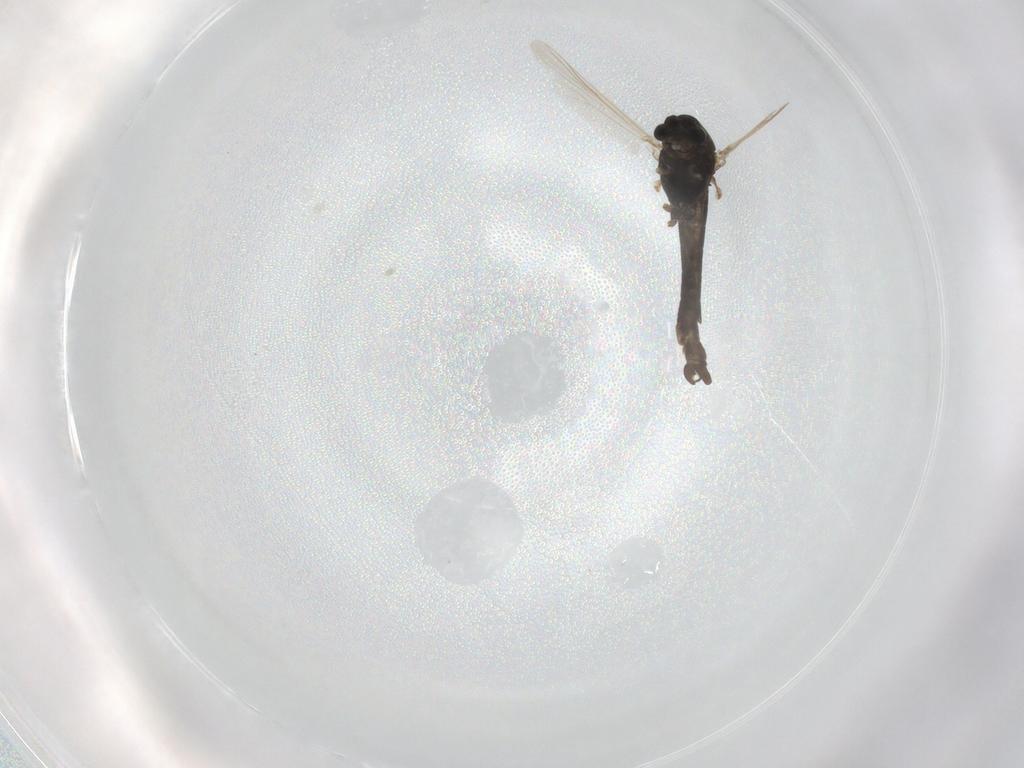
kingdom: Animalia
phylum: Arthropoda
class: Insecta
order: Diptera
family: Chironomidae
